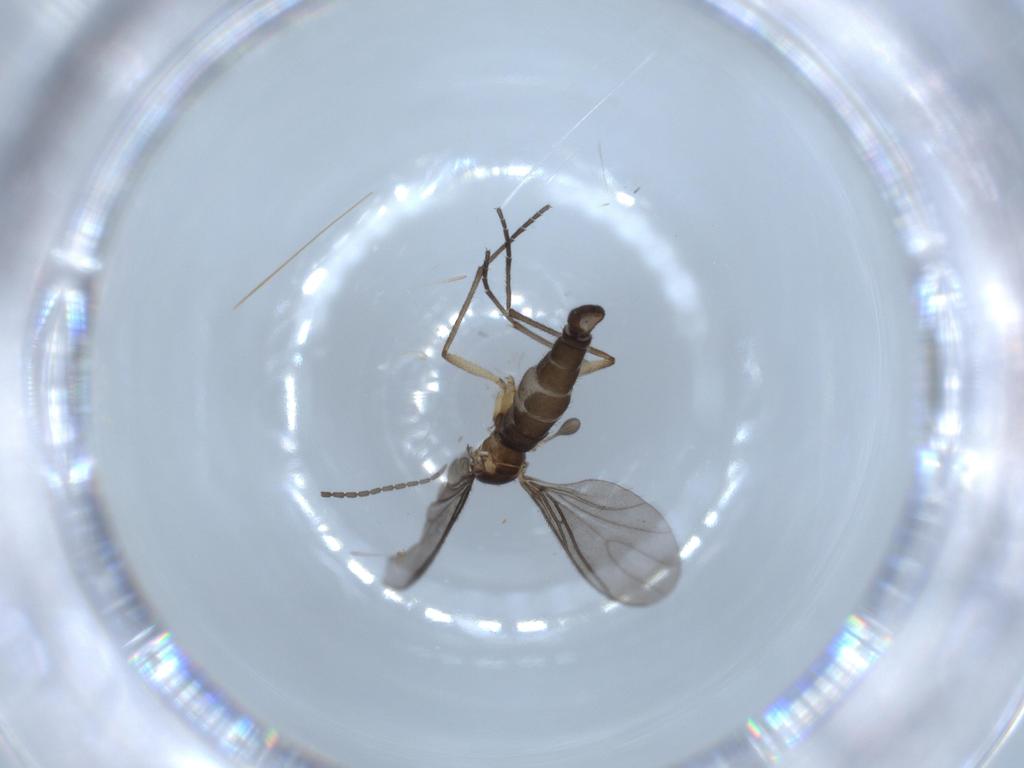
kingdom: Animalia
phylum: Arthropoda
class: Insecta
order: Diptera
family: Sciaridae
